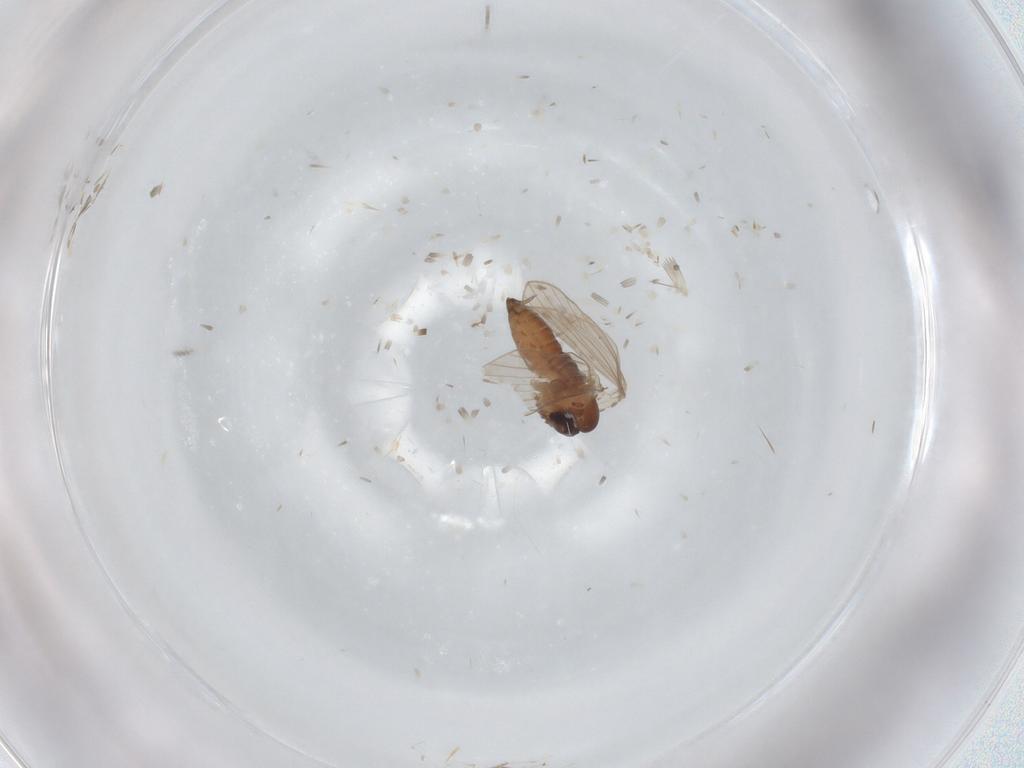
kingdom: Animalia
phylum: Arthropoda
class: Insecta
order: Diptera
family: Psychodidae
